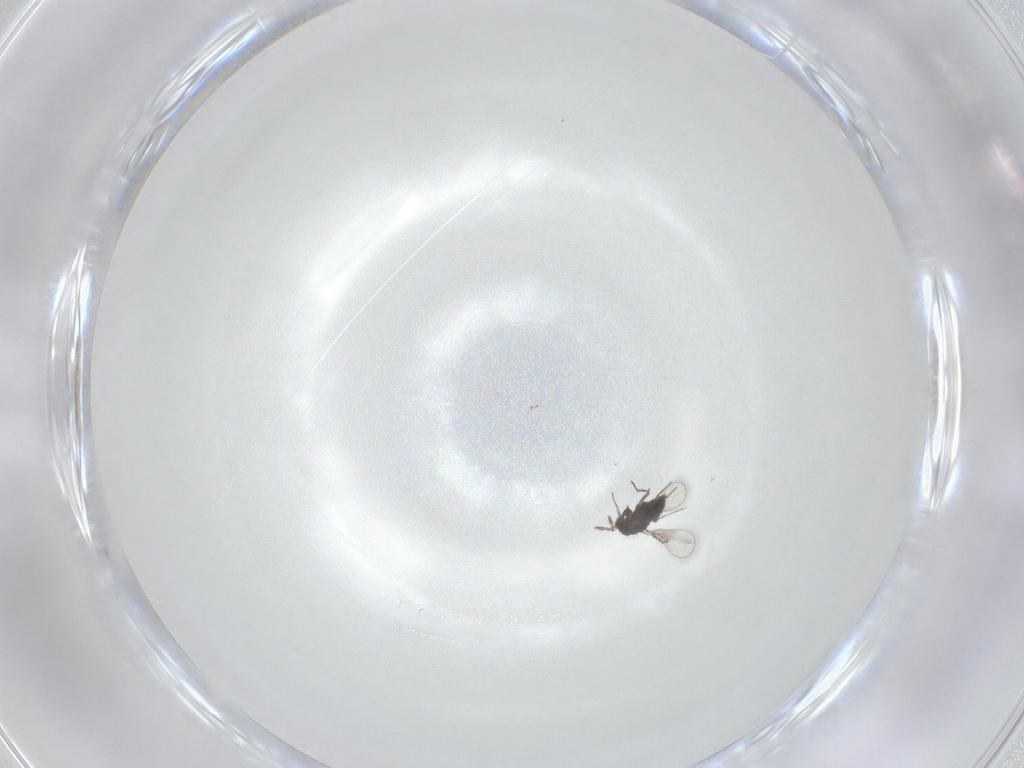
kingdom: Animalia
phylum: Arthropoda
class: Insecta
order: Hymenoptera
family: Trichogrammatidae
